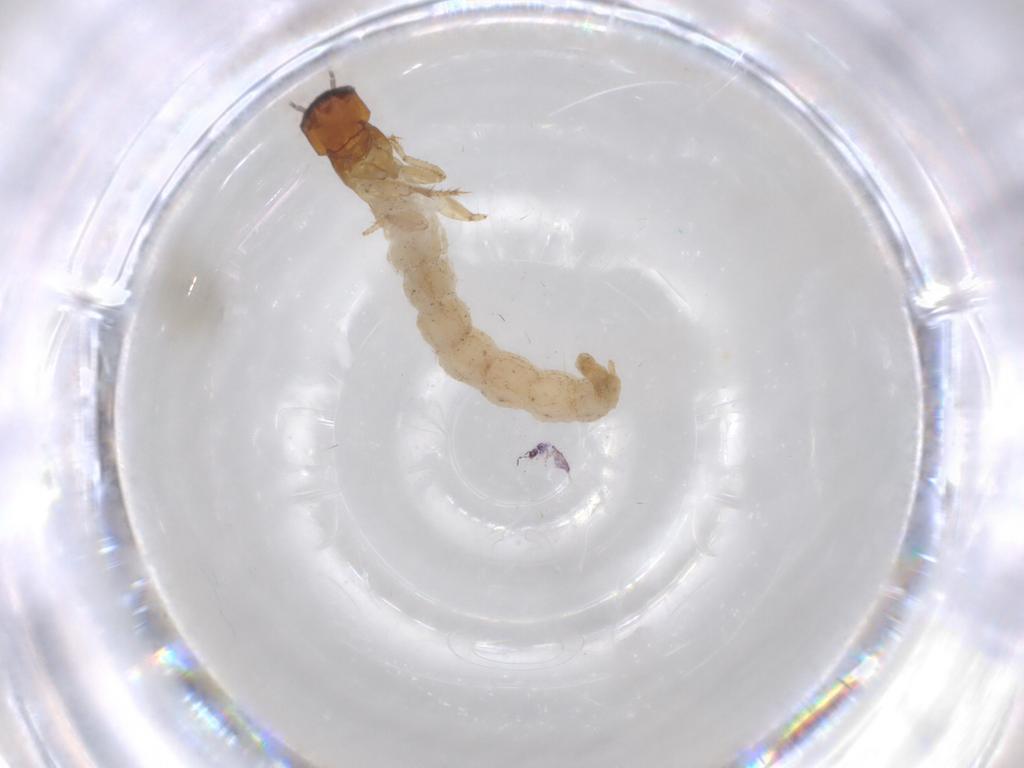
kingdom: Animalia
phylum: Arthropoda
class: Insecta
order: Coleoptera
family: Staphylinidae
